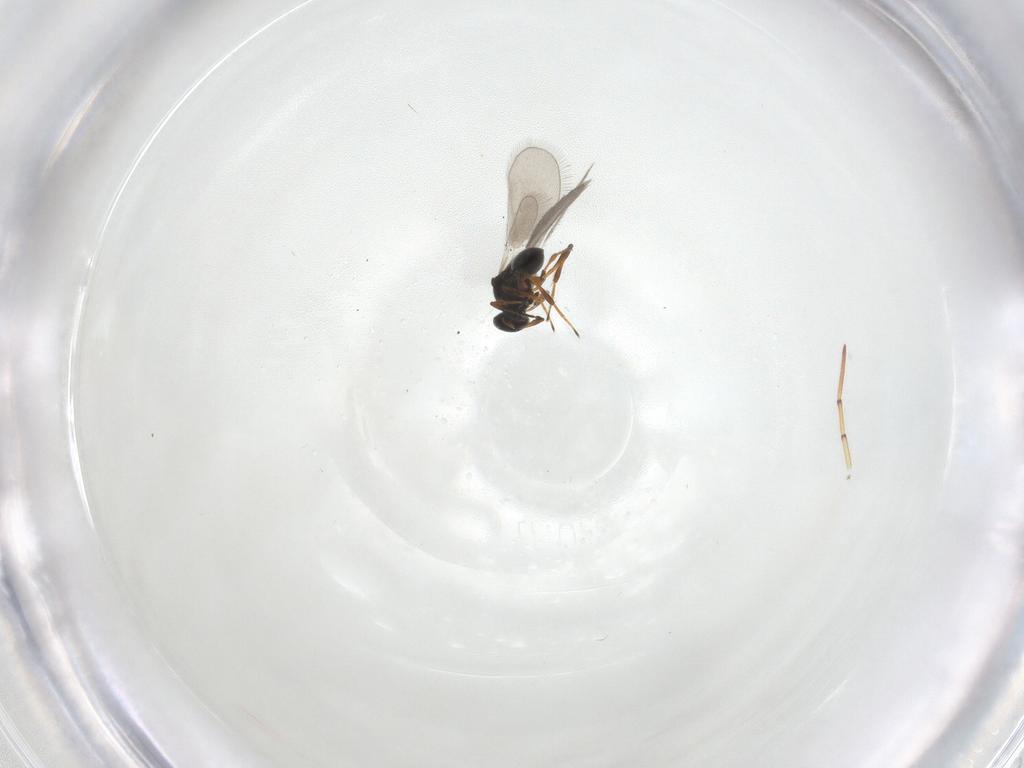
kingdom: Animalia
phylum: Arthropoda
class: Insecta
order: Hymenoptera
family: Platygastridae
